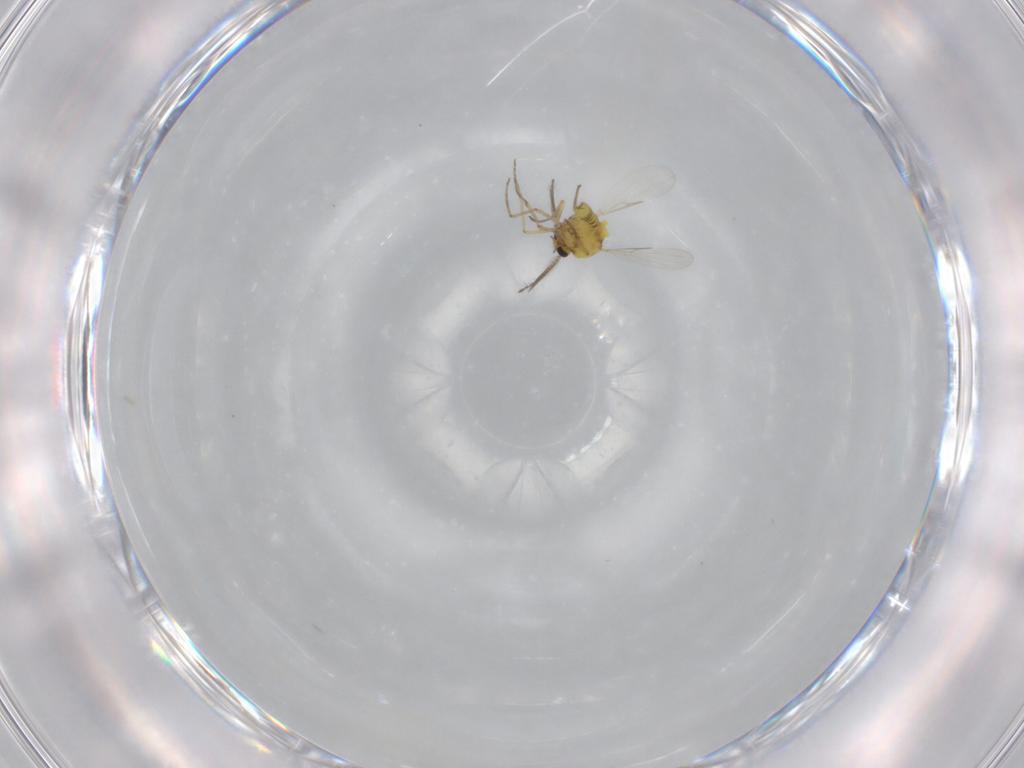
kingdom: Animalia
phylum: Arthropoda
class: Insecta
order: Diptera
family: Ceratopogonidae
